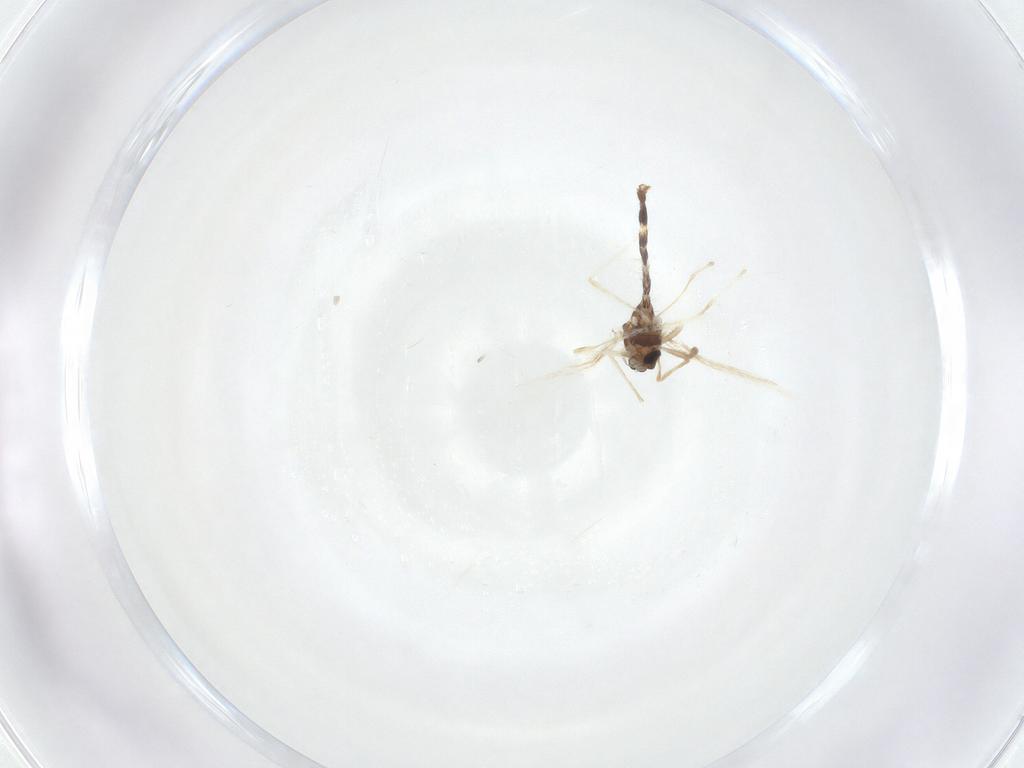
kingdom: Animalia
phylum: Arthropoda
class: Insecta
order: Diptera
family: Chironomidae
